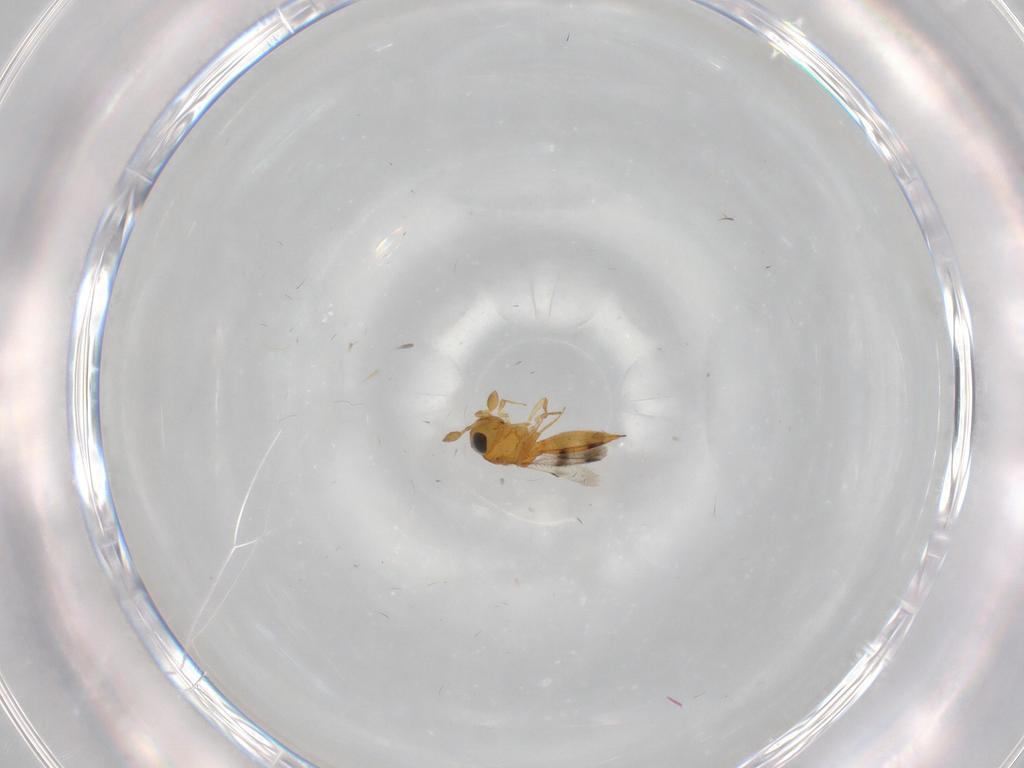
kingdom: Animalia
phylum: Arthropoda
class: Insecta
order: Hymenoptera
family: Scelionidae
